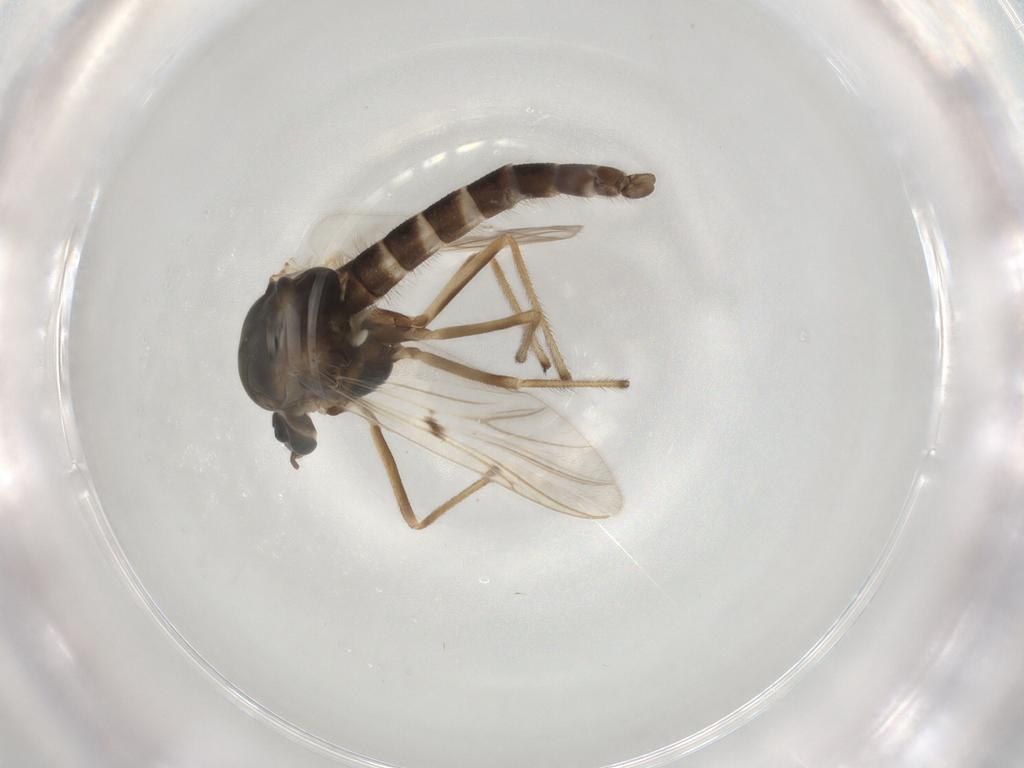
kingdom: Animalia
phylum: Arthropoda
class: Insecta
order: Diptera
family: Chironomidae
